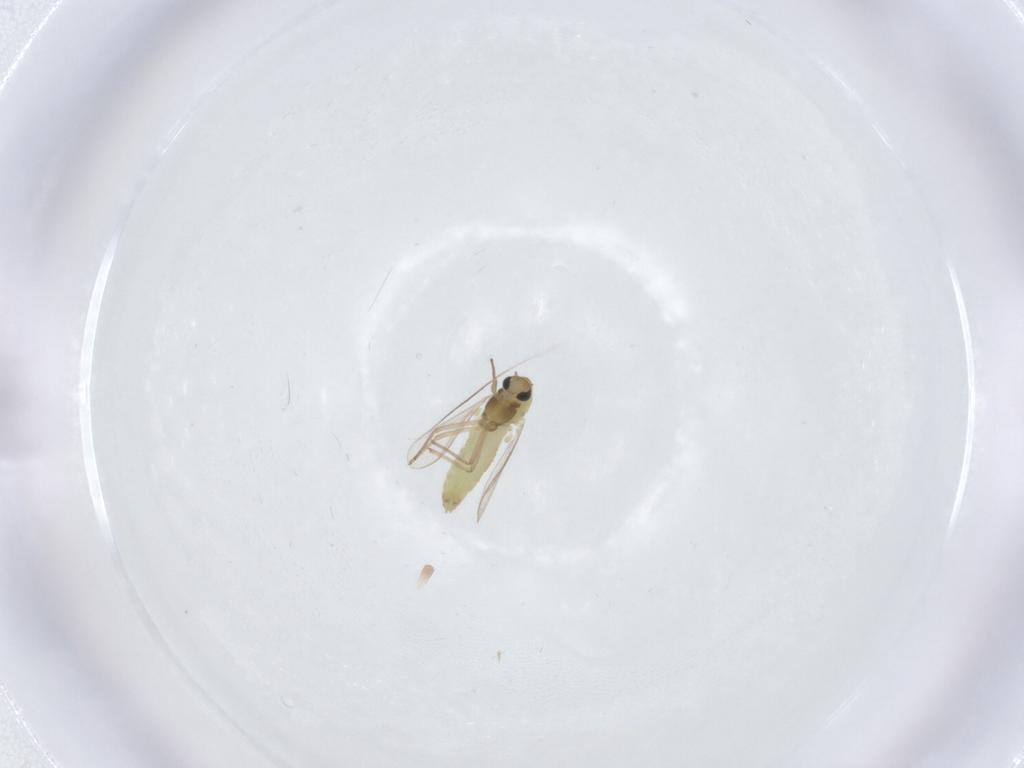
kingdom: Animalia
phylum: Arthropoda
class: Insecta
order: Diptera
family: Chironomidae
